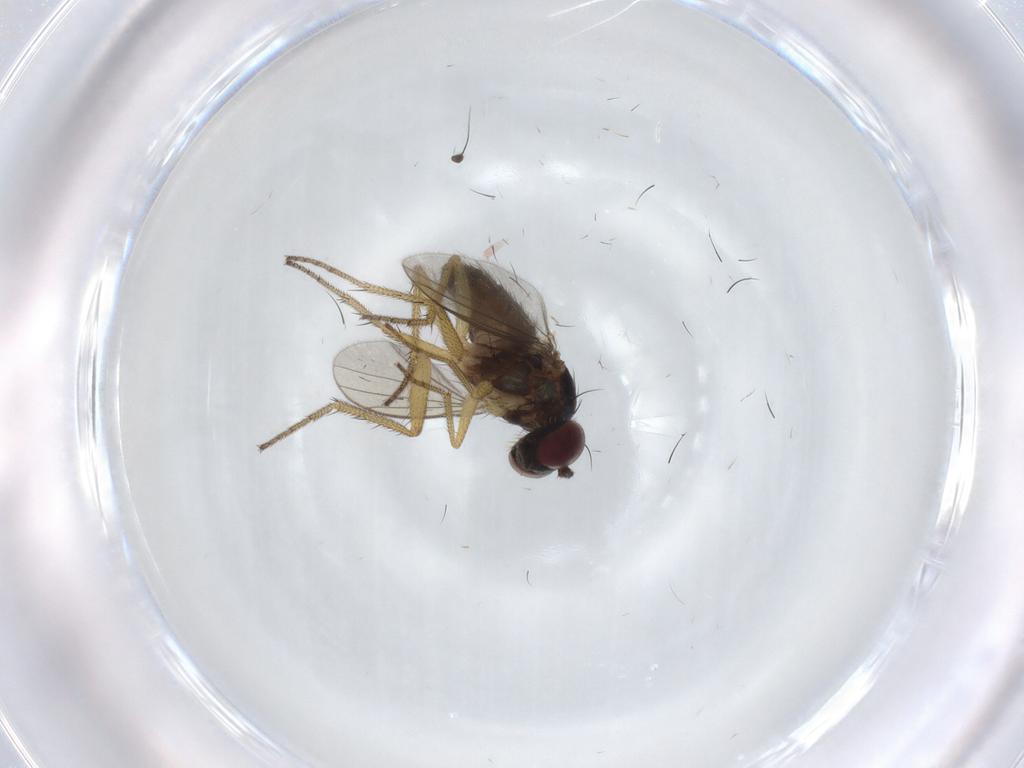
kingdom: Animalia
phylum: Arthropoda
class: Insecta
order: Diptera
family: Dolichopodidae
